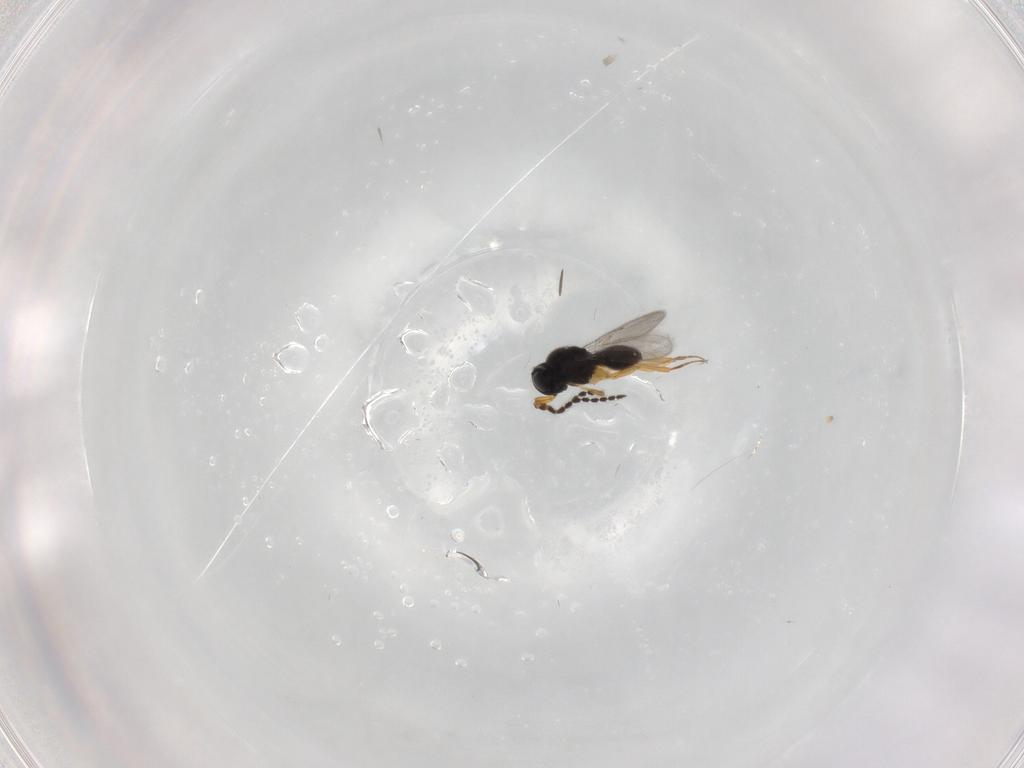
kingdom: Animalia
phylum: Arthropoda
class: Insecta
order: Hymenoptera
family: Scelionidae
